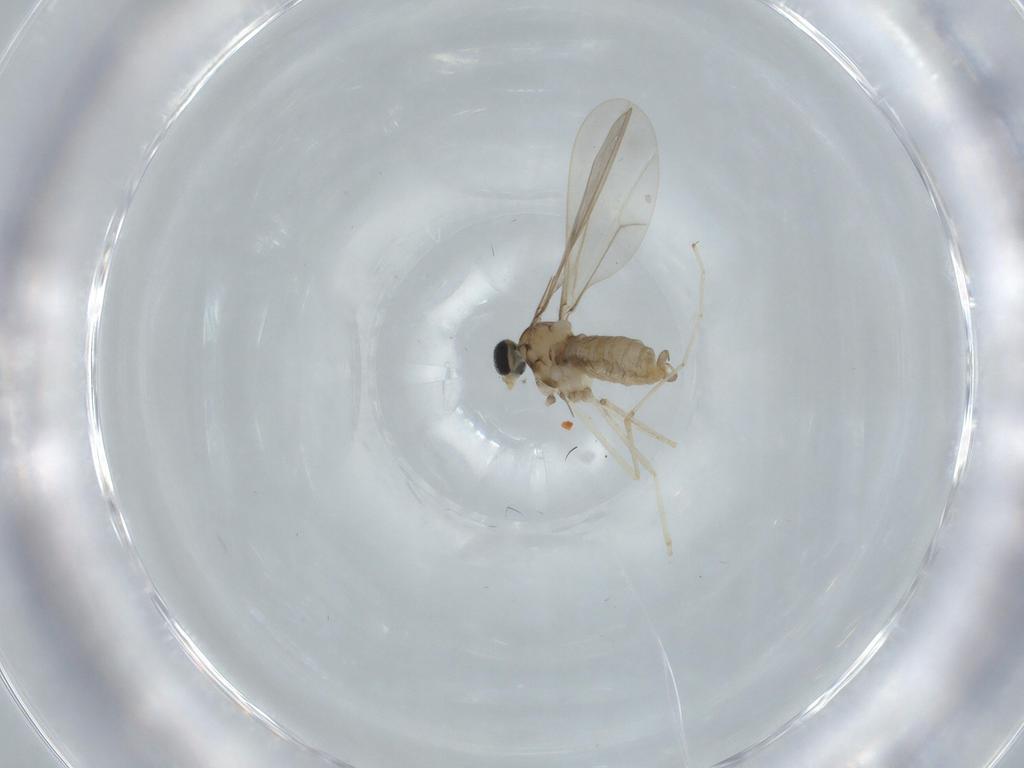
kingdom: Animalia
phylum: Arthropoda
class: Insecta
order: Diptera
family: Cecidomyiidae
